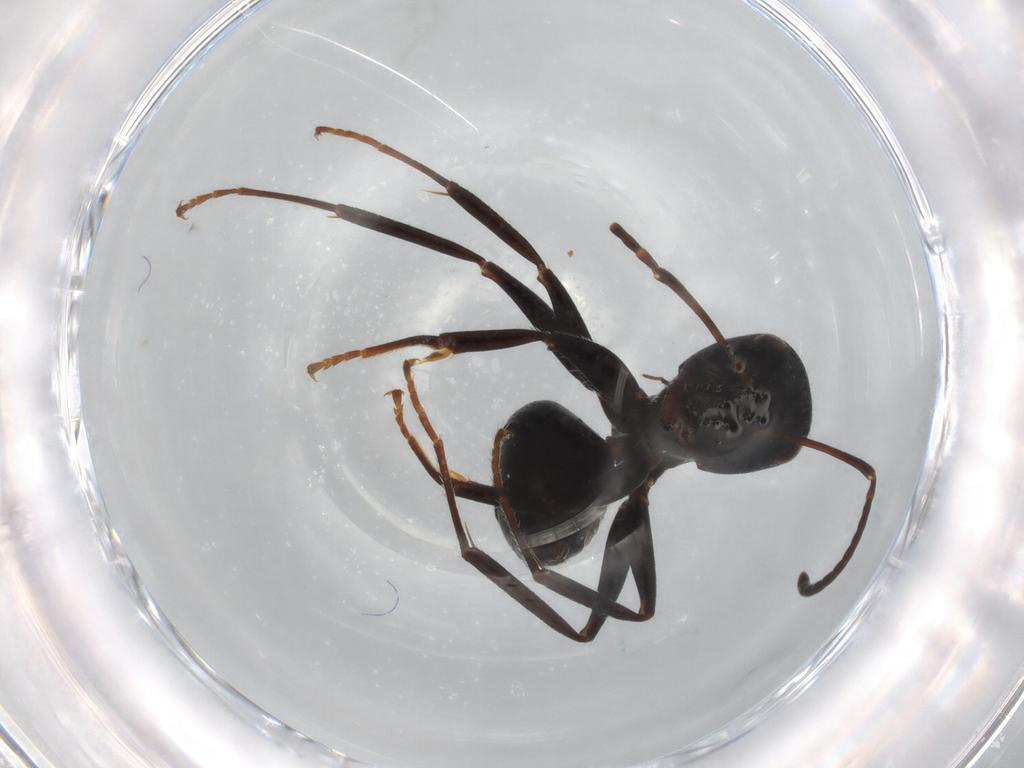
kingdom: Animalia
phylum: Arthropoda
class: Insecta
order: Hymenoptera
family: Formicidae
